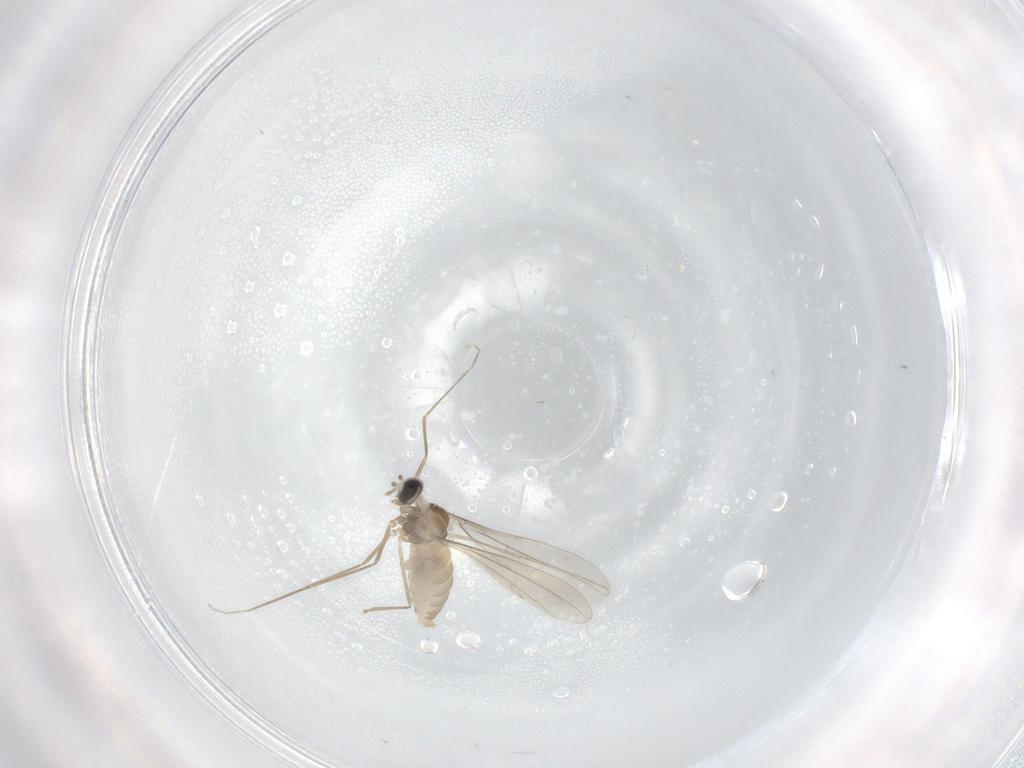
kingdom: Animalia
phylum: Arthropoda
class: Insecta
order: Diptera
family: Cecidomyiidae
